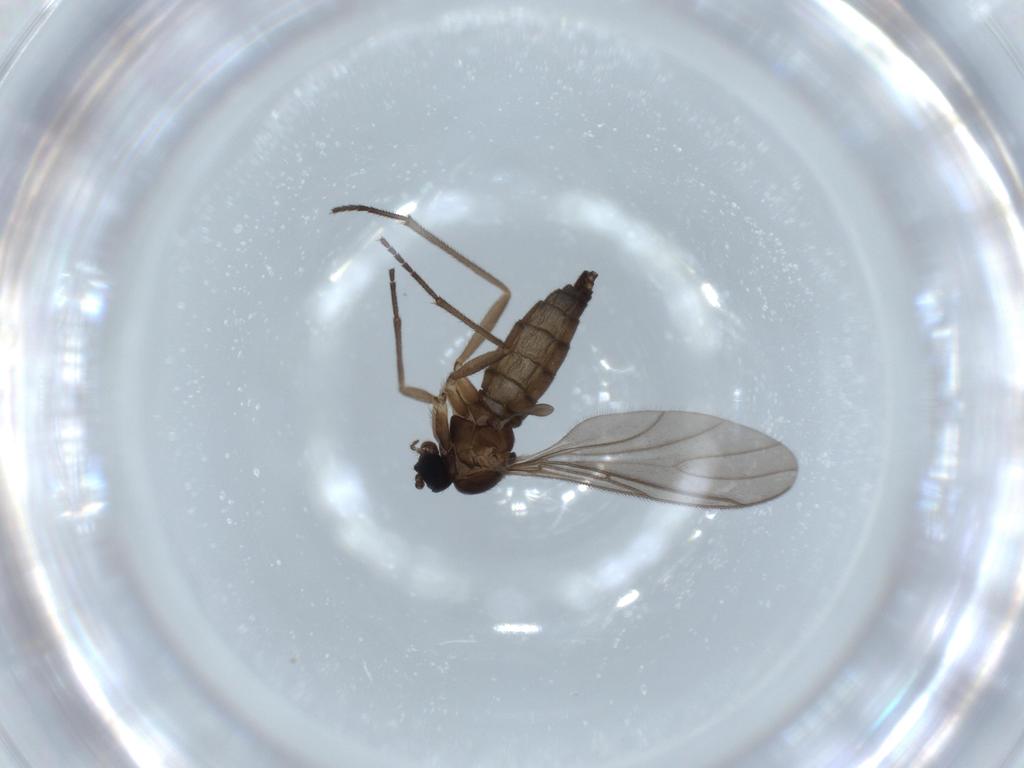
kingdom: Animalia
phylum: Arthropoda
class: Insecta
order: Diptera
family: Sciaridae
